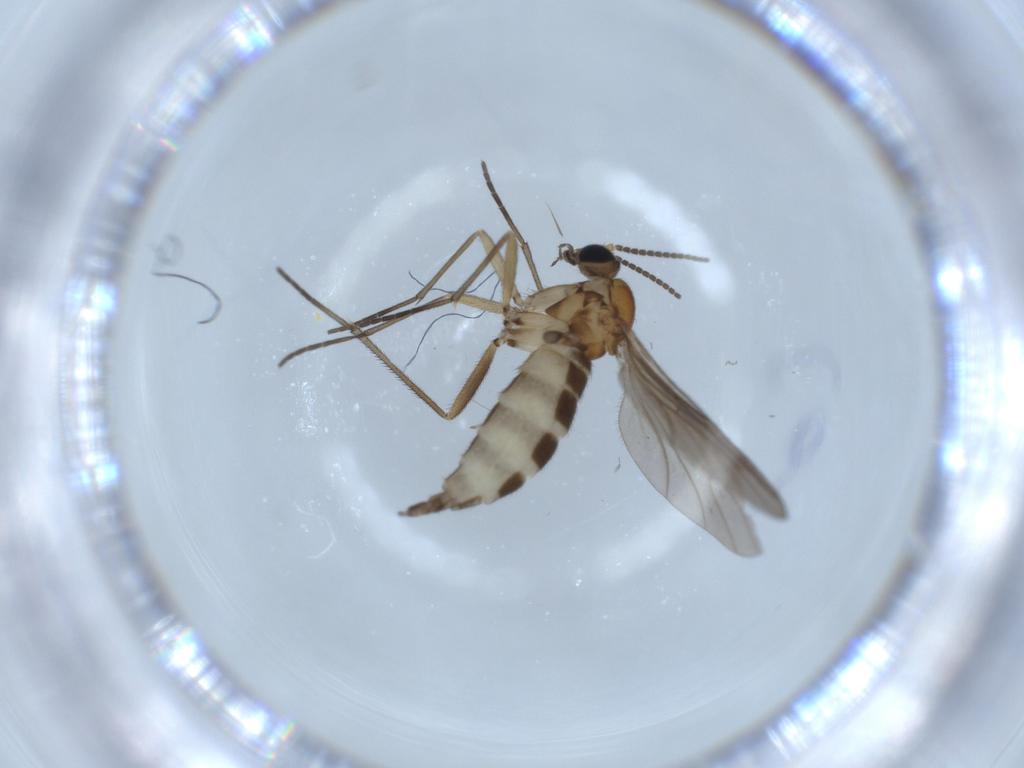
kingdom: Animalia
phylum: Arthropoda
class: Insecta
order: Diptera
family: Sciaridae
